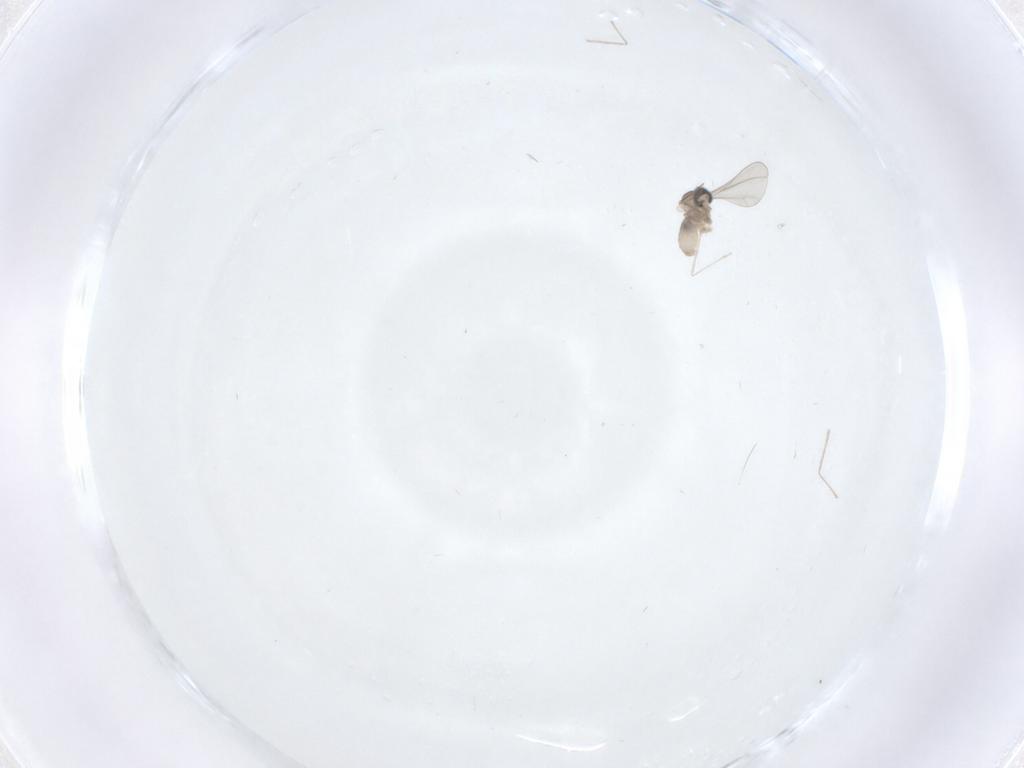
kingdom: Animalia
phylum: Arthropoda
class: Insecta
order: Diptera
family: Cecidomyiidae
